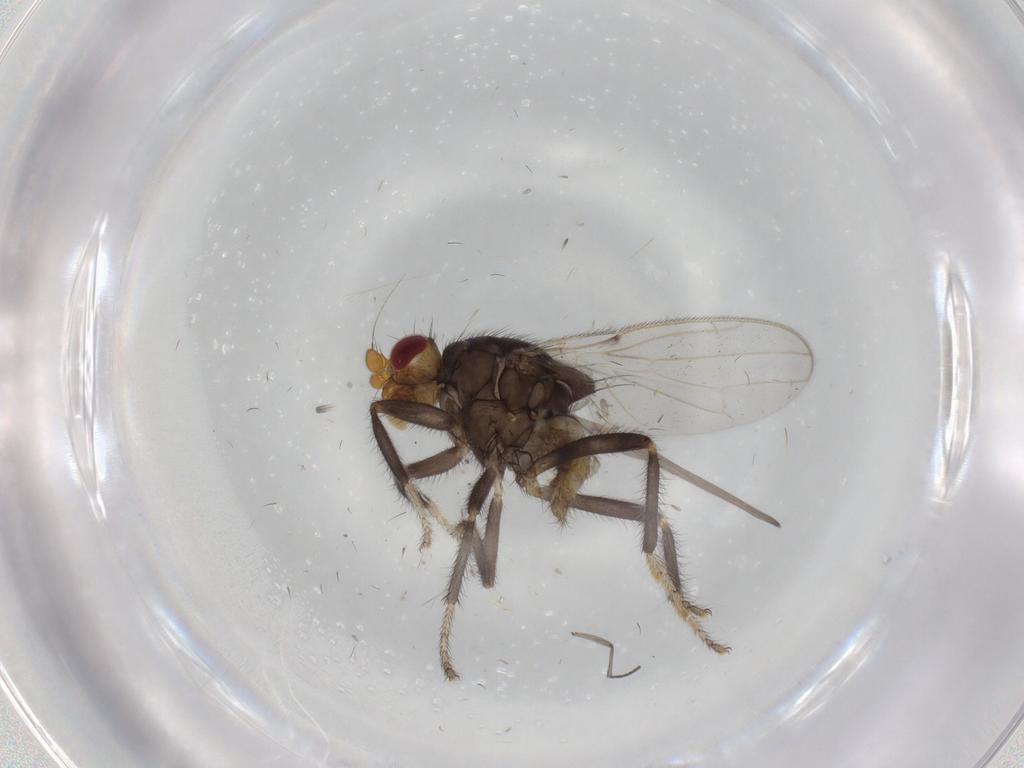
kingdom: Animalia
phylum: Arthropoda
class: Insecta
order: Diptera
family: Sphaeroceridae
